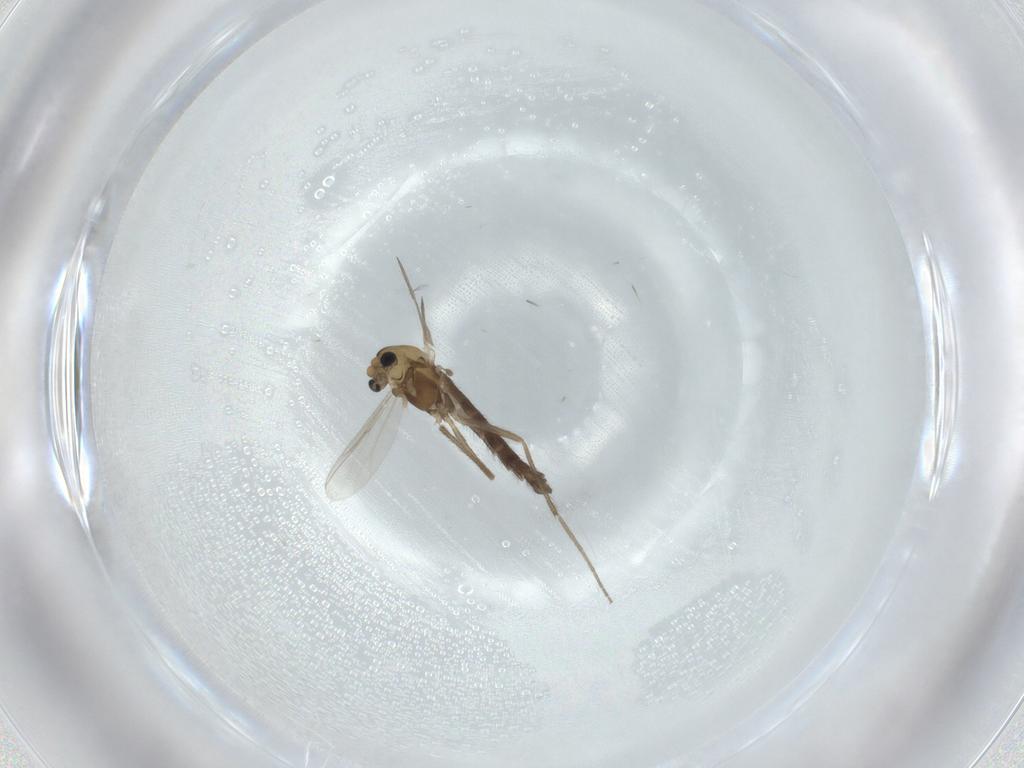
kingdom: Animalia
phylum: Arthropoda
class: Insecta
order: Diptera
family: Chironomidae
